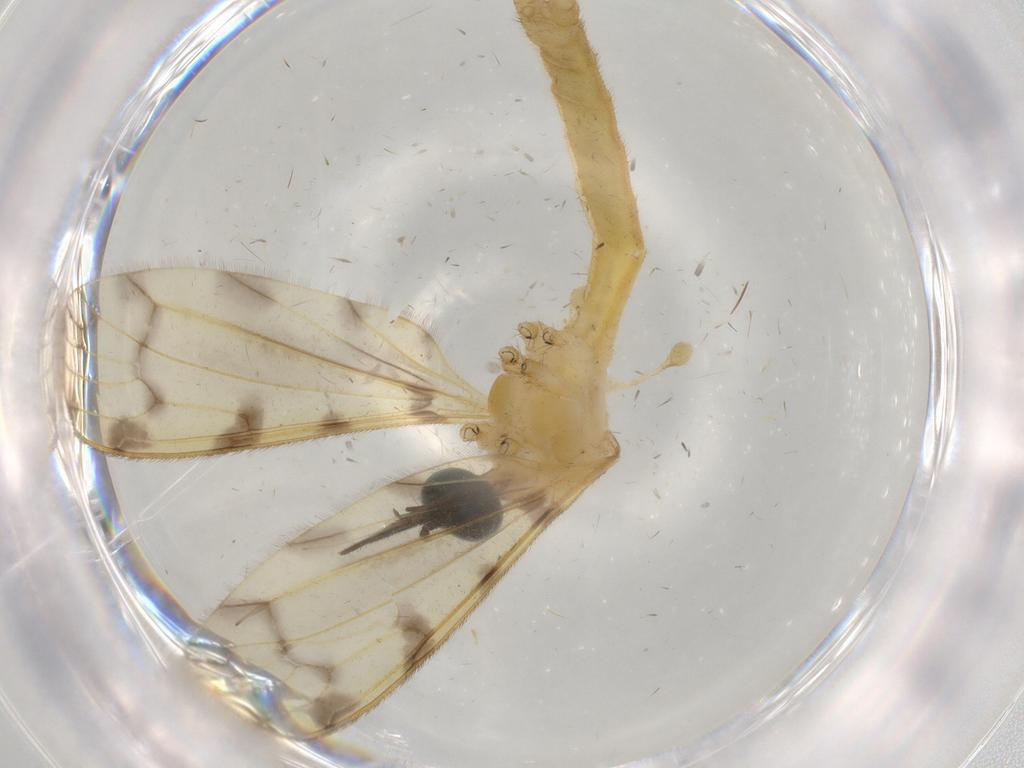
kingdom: Animalia
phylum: Arthropoda
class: Insecta
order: Diptera
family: Limoniidae
